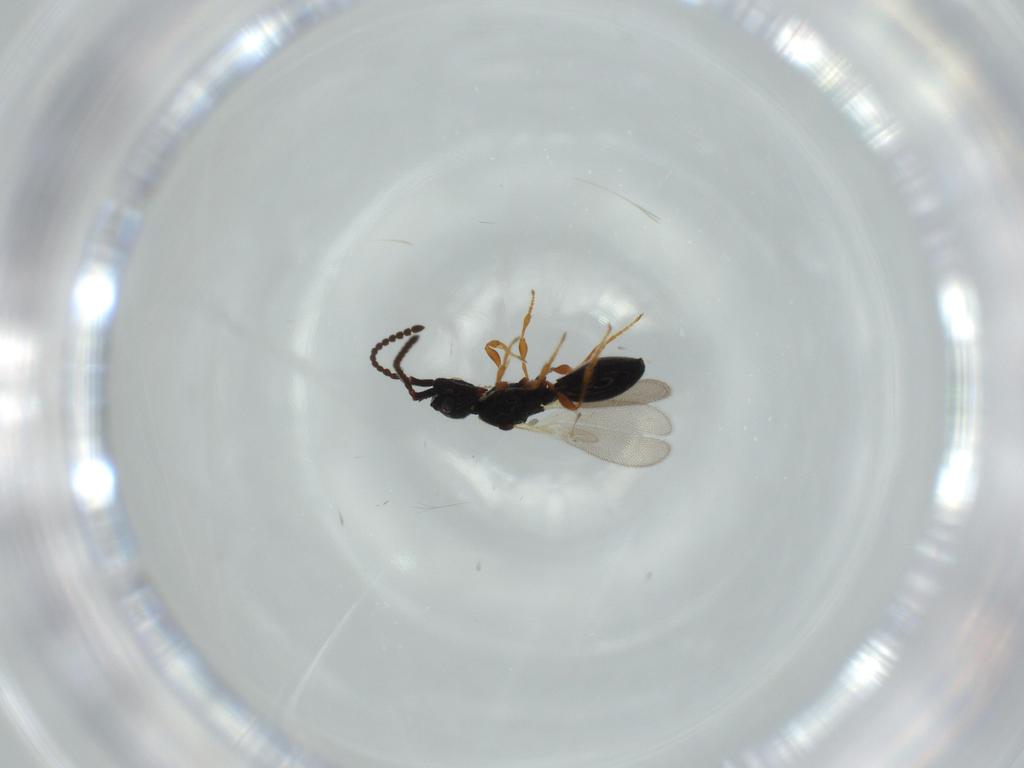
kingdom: Animalia
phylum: Arthropoda
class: Insecta
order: Hymenoptera
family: Diapriidae
